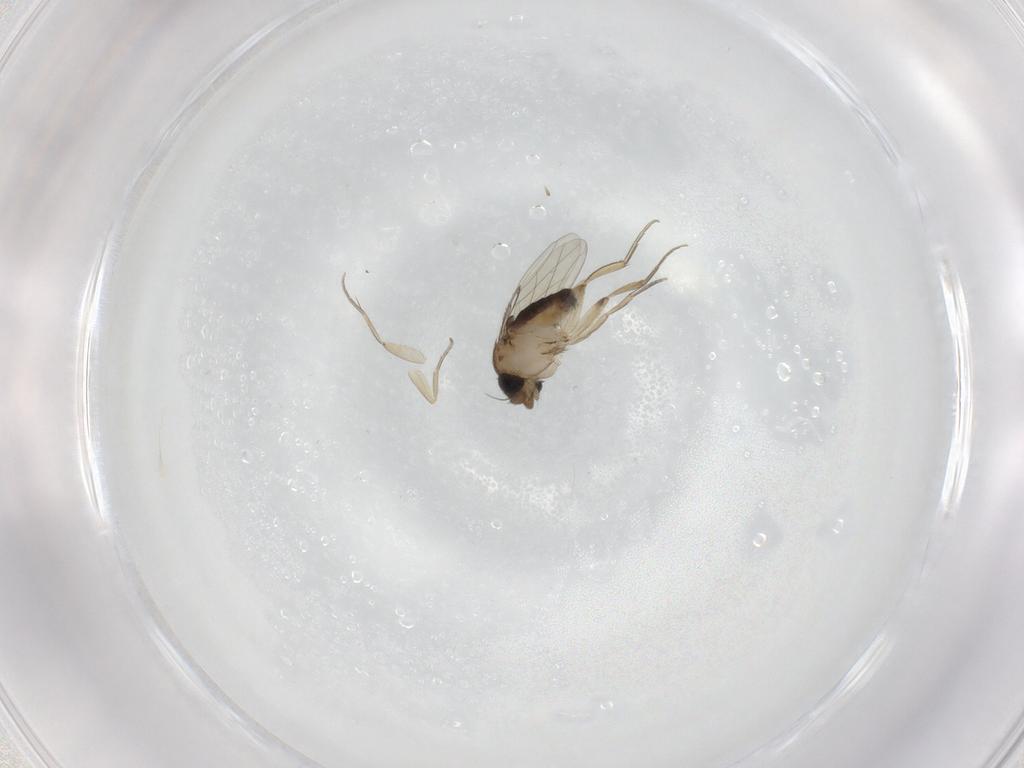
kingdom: Animalia
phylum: Arthropoda
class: Insecta
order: Diptera
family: Phoridae
